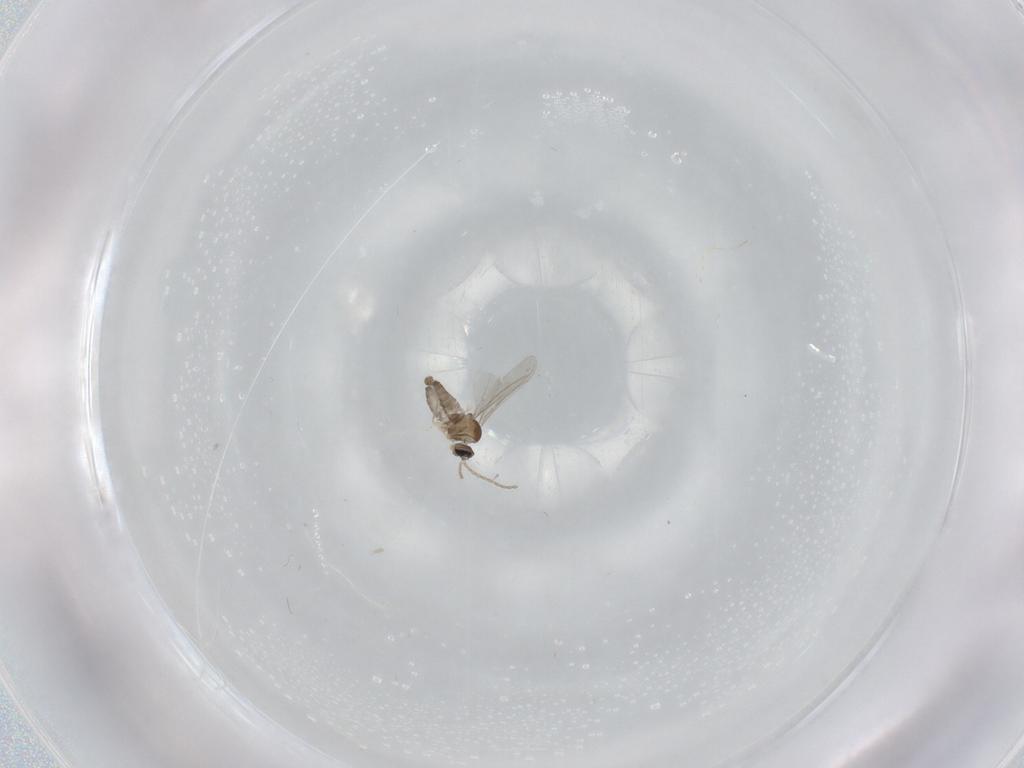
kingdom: Animalia
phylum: Arthropoda
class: Insecta
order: Diptera
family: Cecidomyiidae
